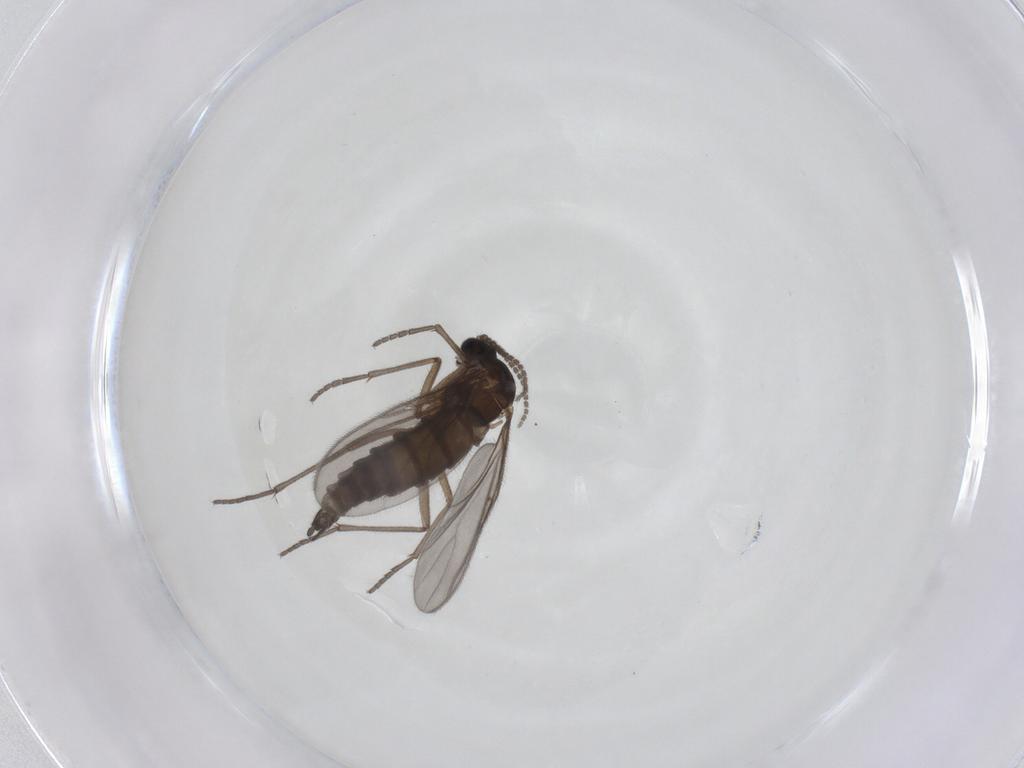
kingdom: Animalia
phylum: Arthropoda
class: Insecta
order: Diptera
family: Sciaridae
